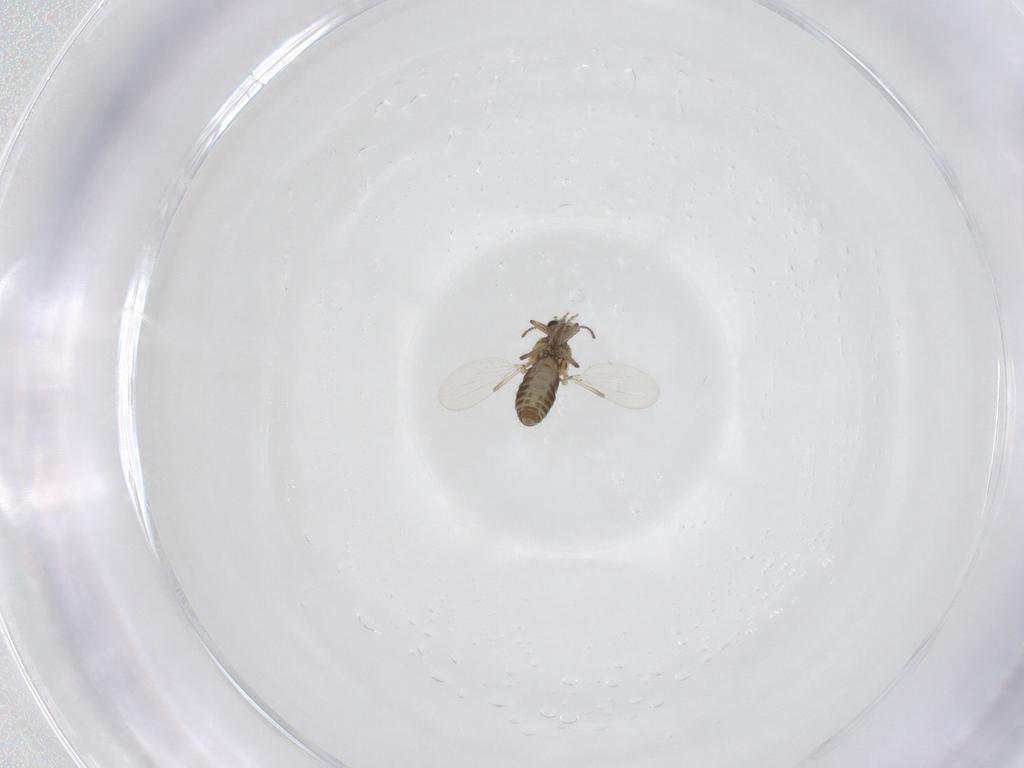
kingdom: Animalia
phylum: Arthropoda
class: Insecta
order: Diptera
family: Ceratopogonidae
